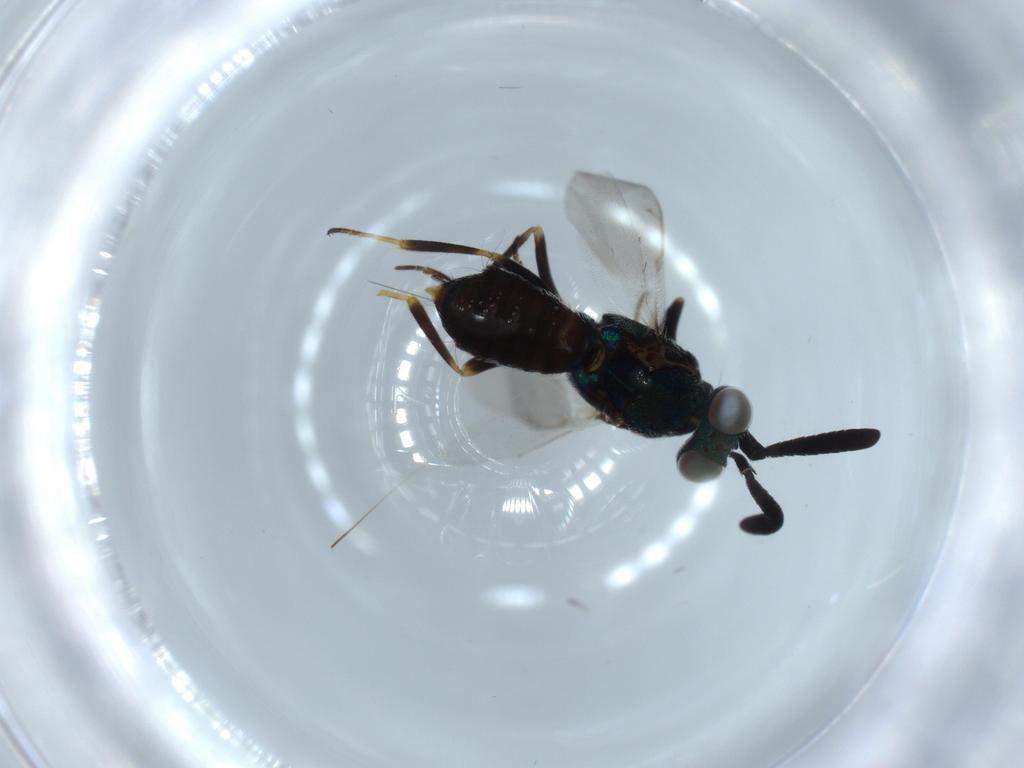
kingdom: Animalia
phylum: Arthropoda
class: Insecta
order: Hymenoptera
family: Eupelmidae
